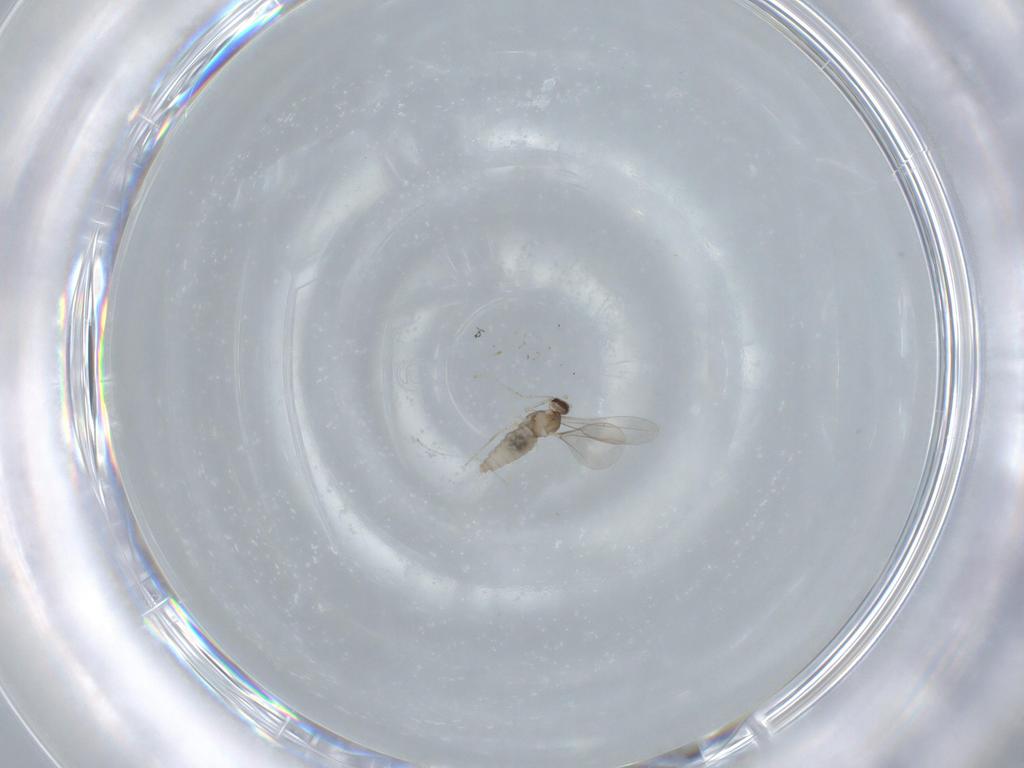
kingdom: Animalia
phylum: Arthropoda
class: Insecta
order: Diptera
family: Cecidomyiidae
